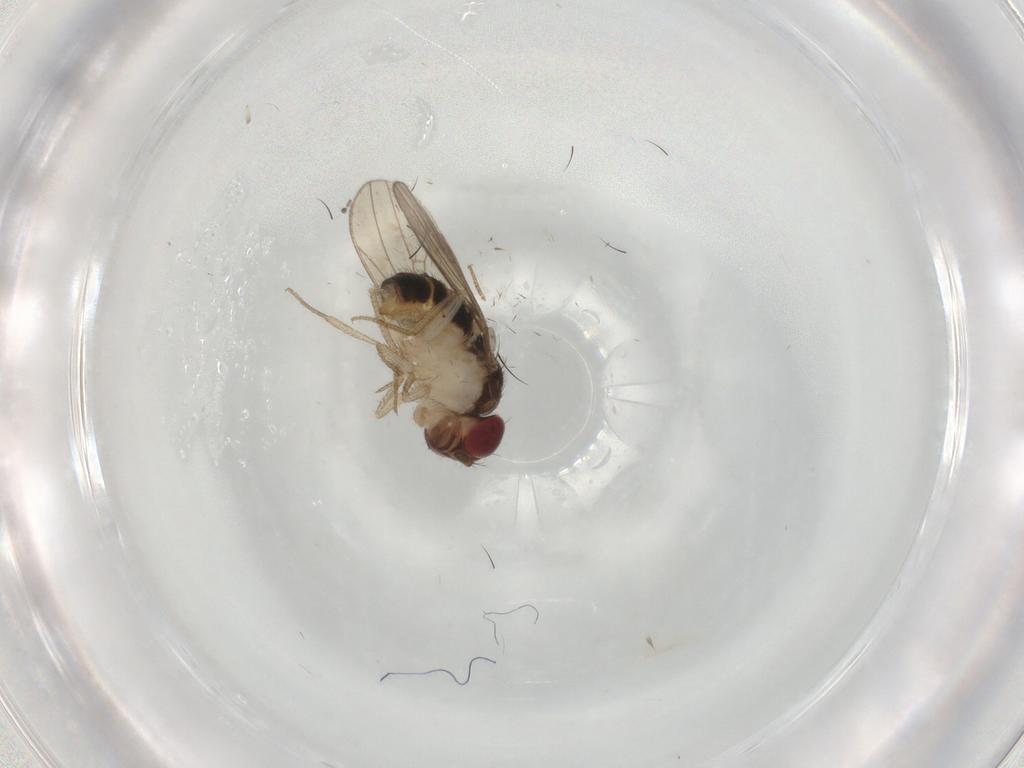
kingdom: Animalia
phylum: Arthropoda
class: Insecta
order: Diptera
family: Drosophilidae
